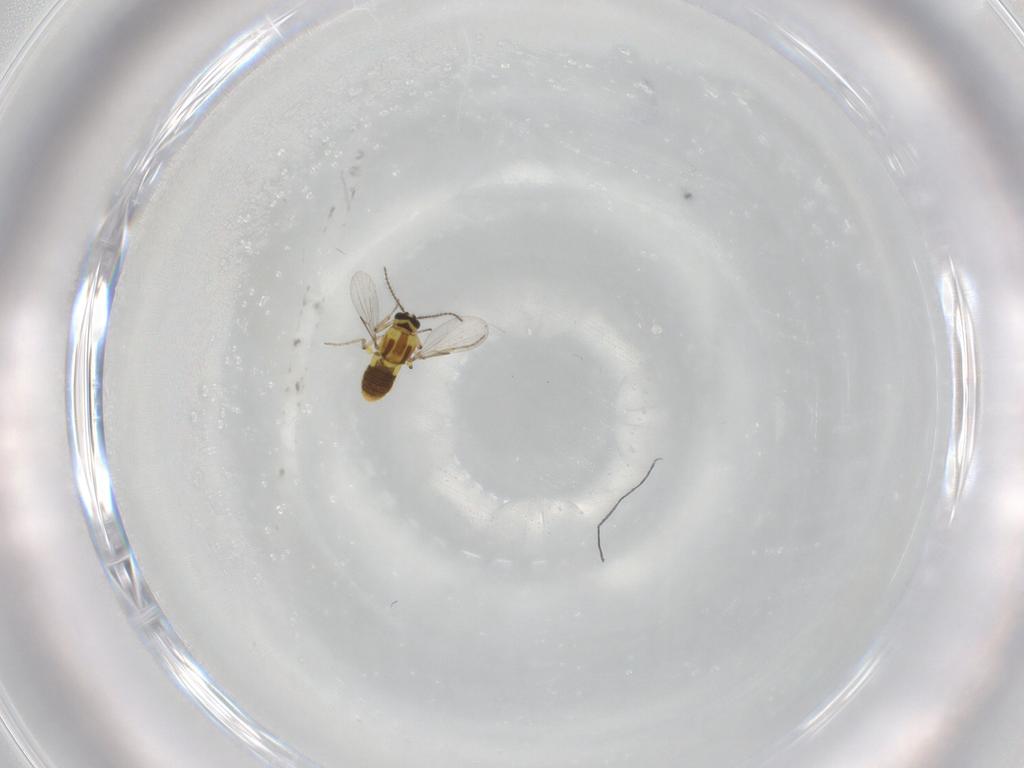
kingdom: Animalia
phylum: Arthropoda
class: Insecta
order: Diptera
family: Ceratopogonidae
